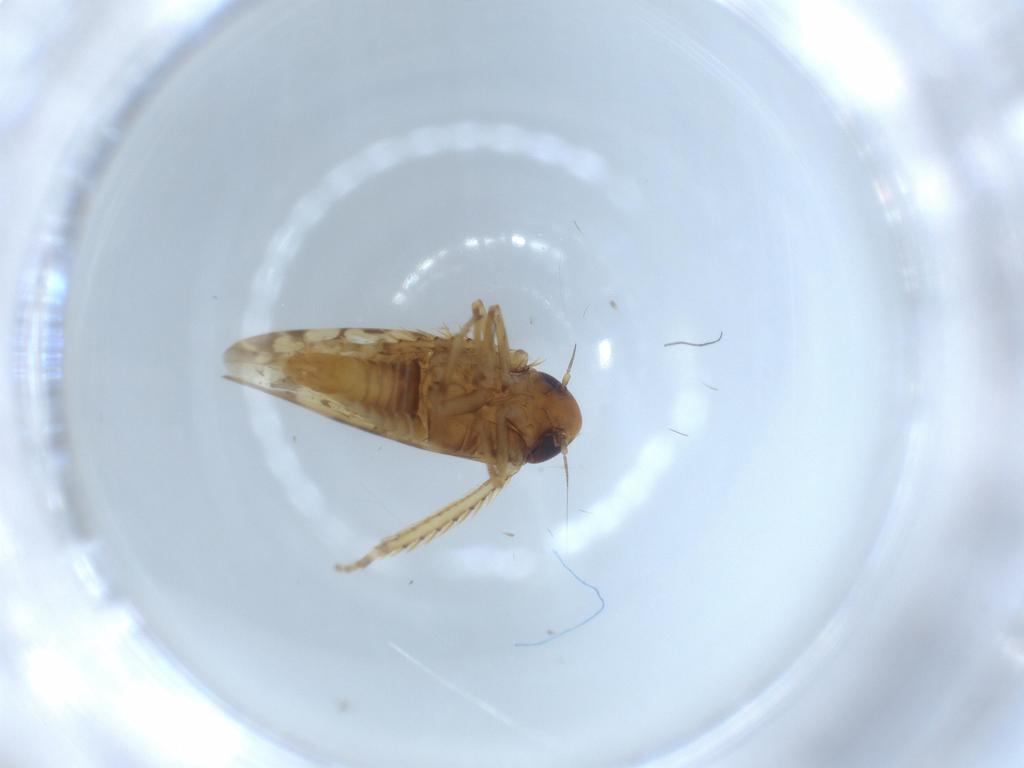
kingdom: Animalia
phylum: Arthropoda
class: Insecta
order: Hemiptera
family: Cicadellidae
